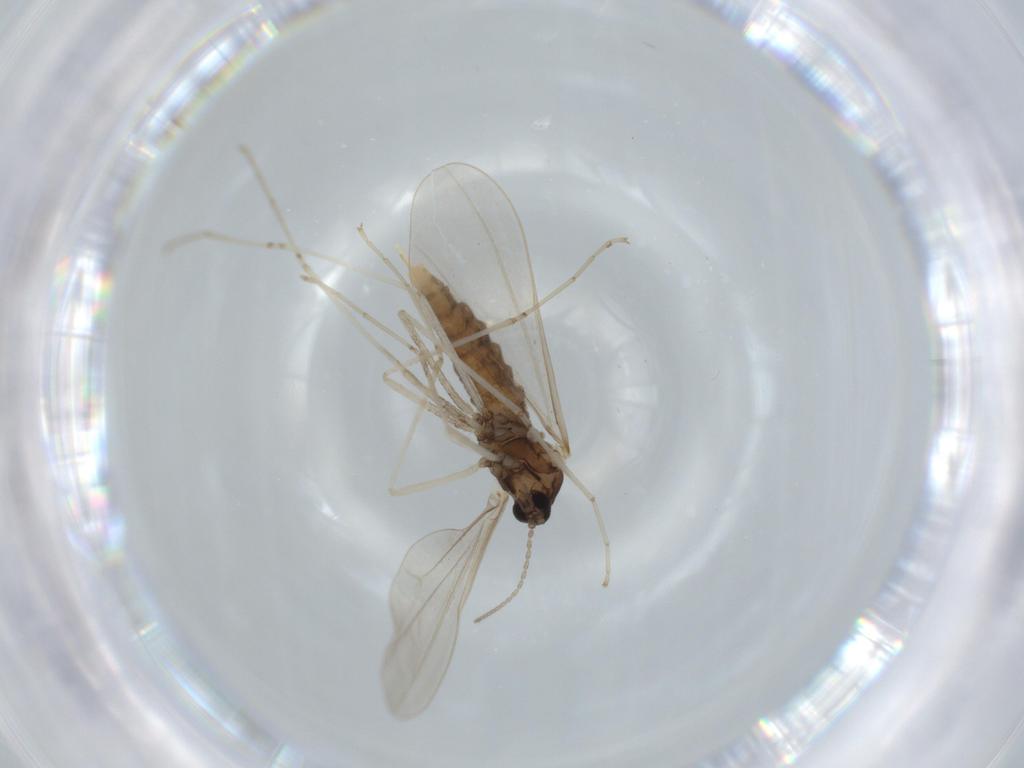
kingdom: Animalia
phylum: Arthropoda
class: Insecta
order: Diptera
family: Cecidomyiidae
